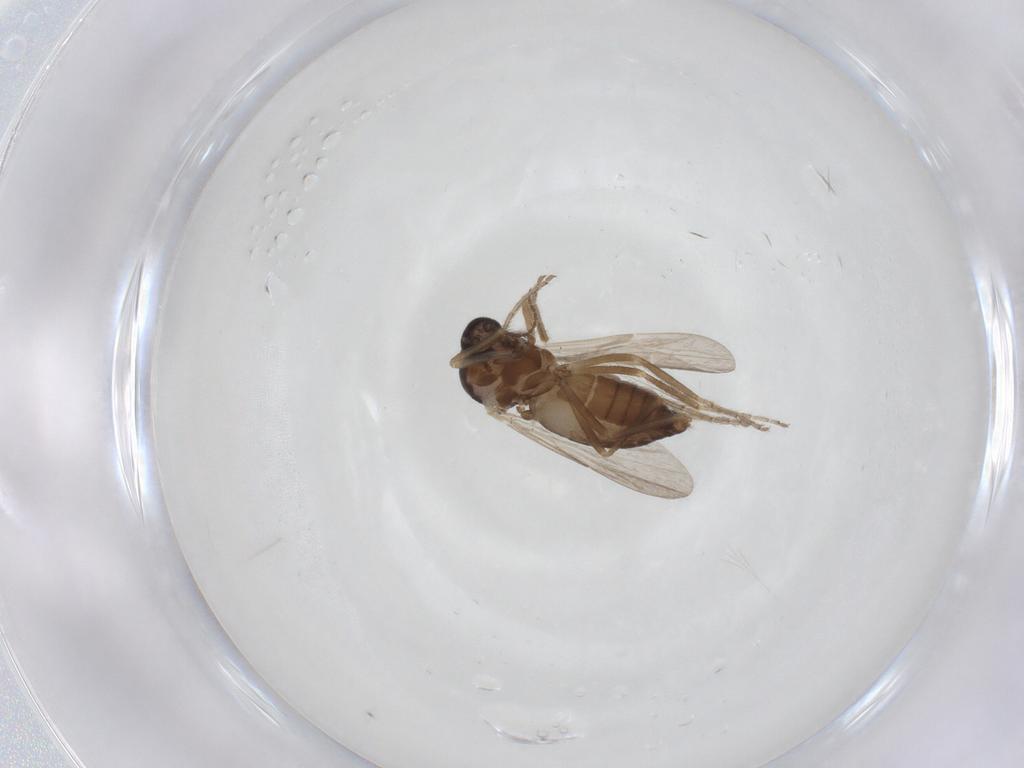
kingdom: Animalia
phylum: Arthropoda
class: Insecta
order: Diptera
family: Ceratopogonidae
